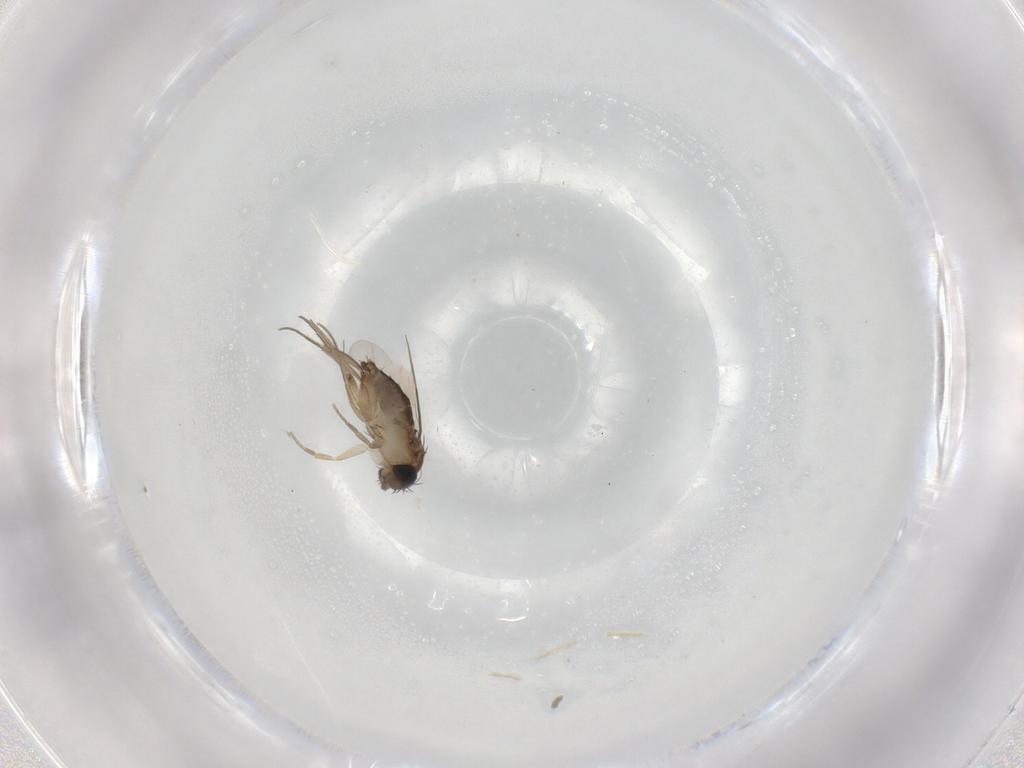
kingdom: Animalia
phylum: Arthropoda
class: Insecta
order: Diptera
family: Phoridae
